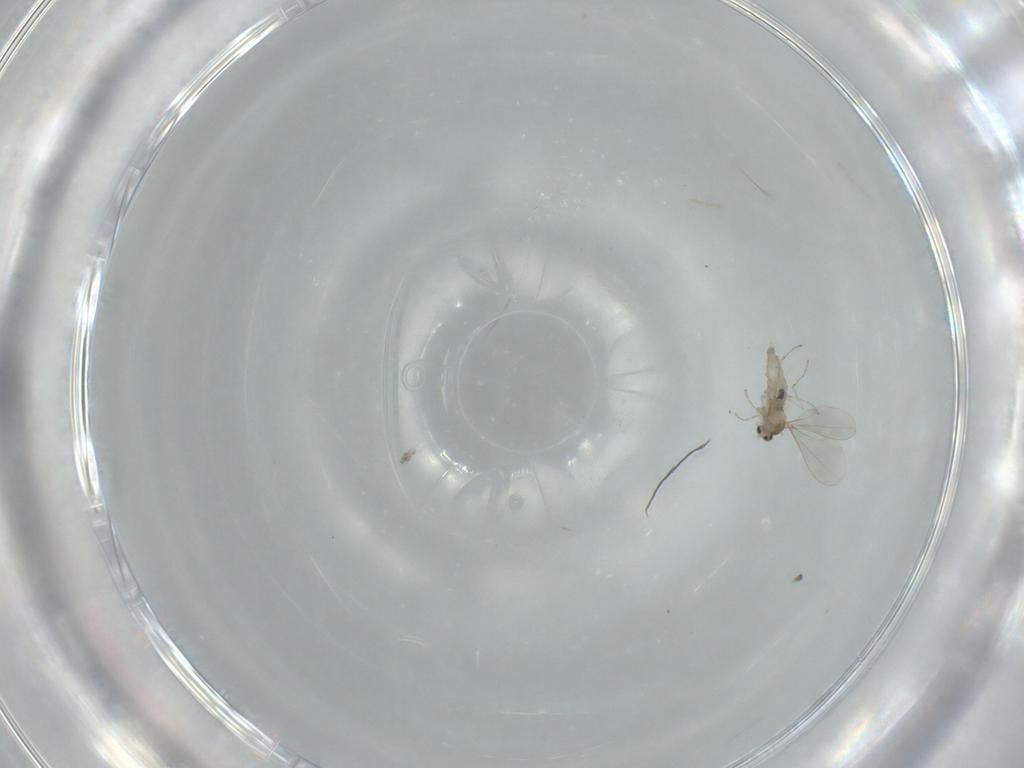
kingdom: Animalia
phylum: Arthropoda
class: Insecta
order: Diptera
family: Cecidomyiidae
